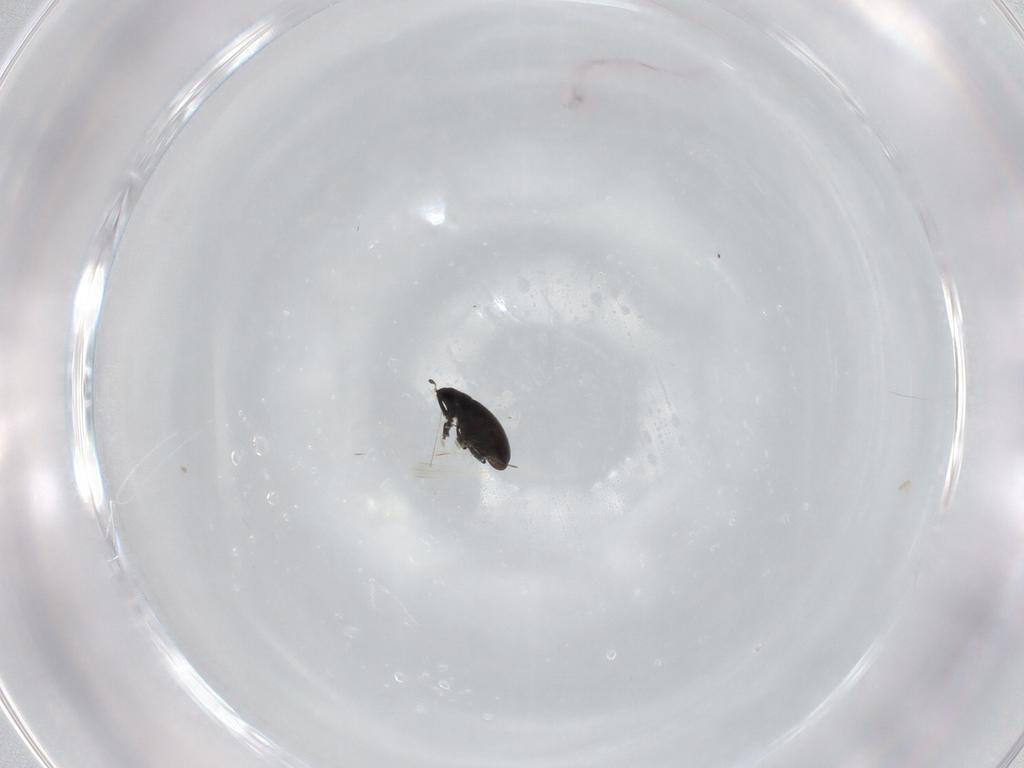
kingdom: Animalia
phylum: Arthropoda
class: Insecta
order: Coleoptera
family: Curculionidae
